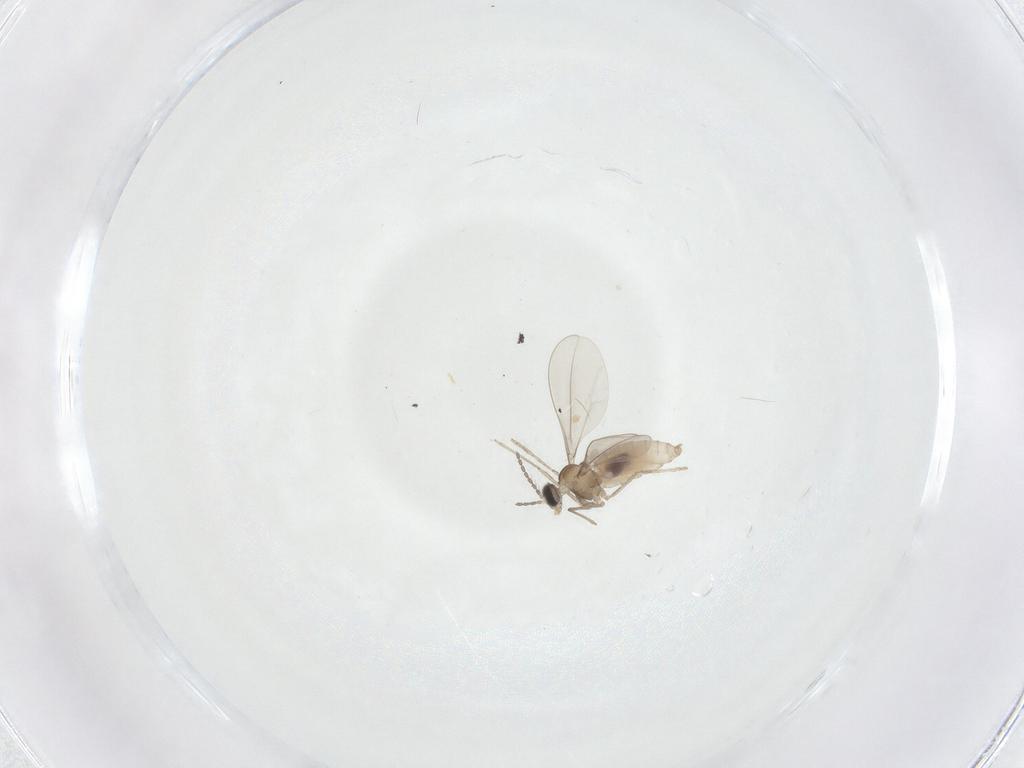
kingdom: Animalia
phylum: Arthropoda
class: Insecta
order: Diptera
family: Cecidomyiidae
